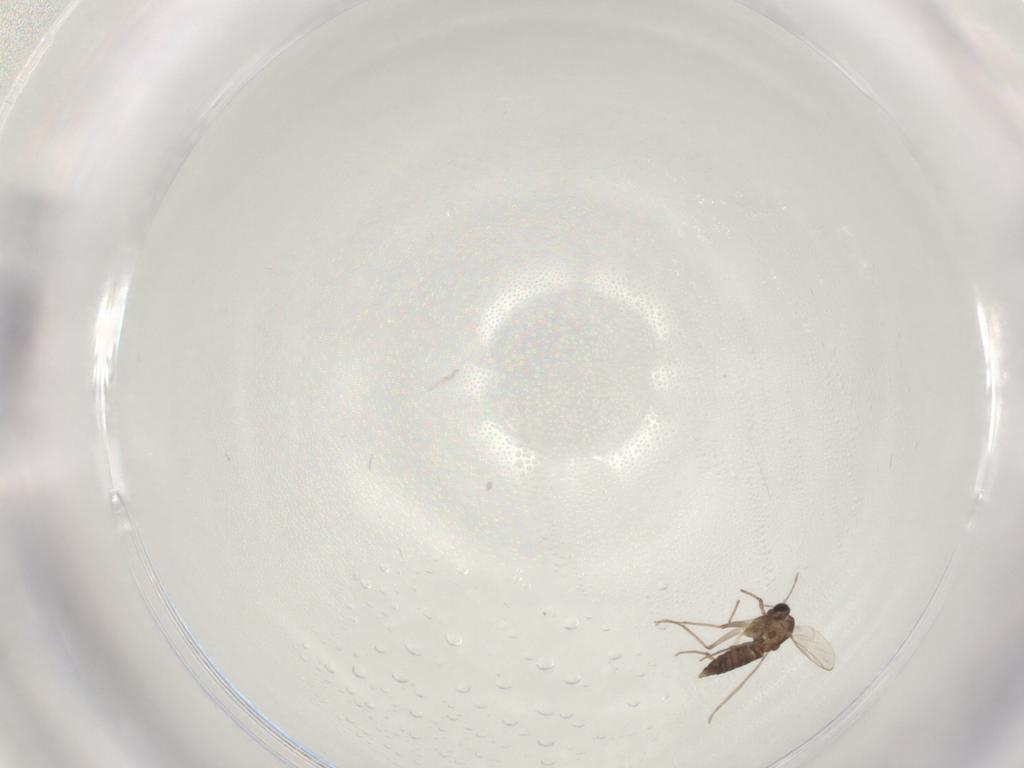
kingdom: Animalia
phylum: Arthropoda
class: Insecta
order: Diptera
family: Chironomidae
